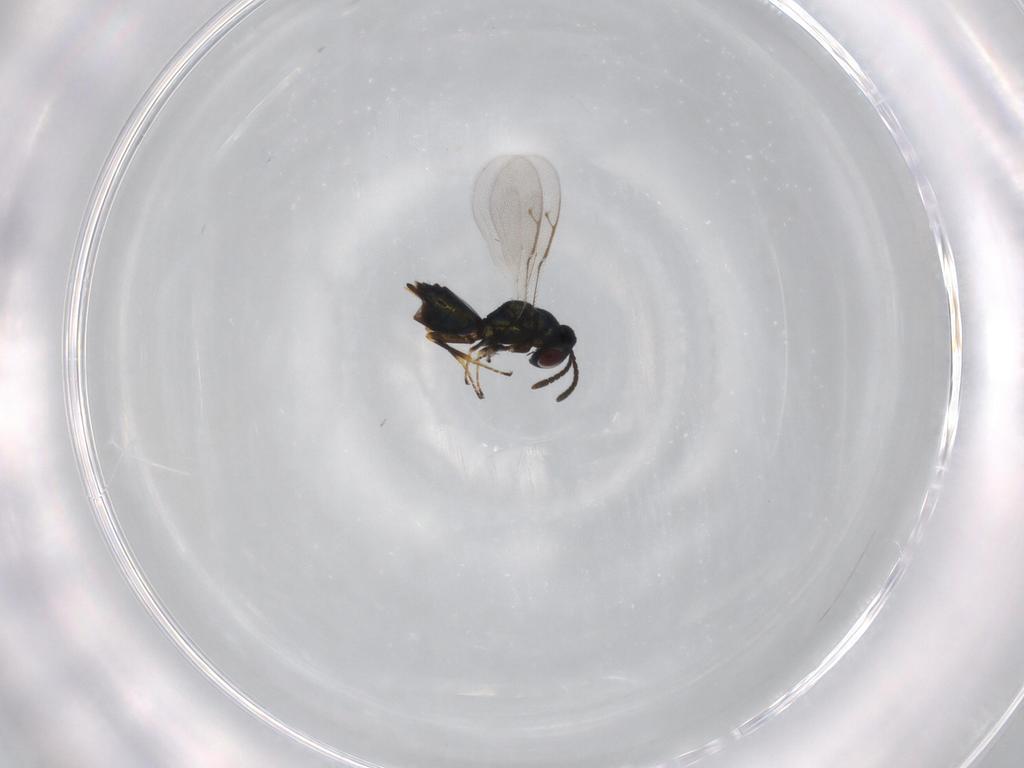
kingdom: Animalia
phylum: Arthropoda
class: Insecta
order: Hymenoptera
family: Pteromalidae
